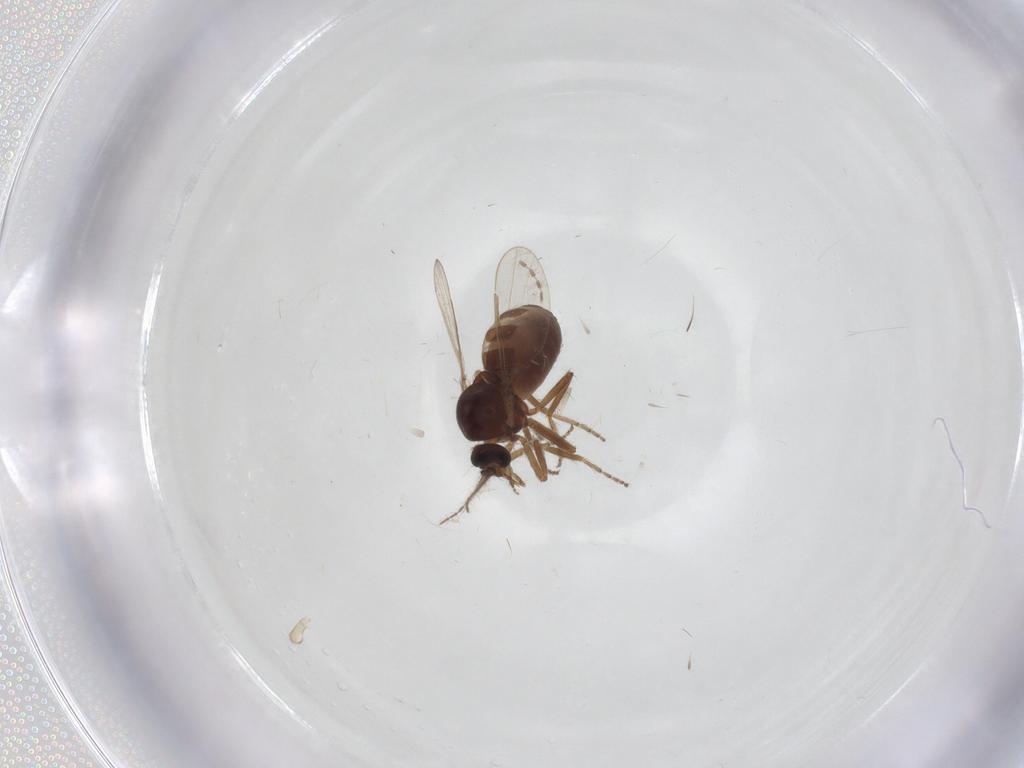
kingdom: Animalia
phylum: Arthropoda
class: Insecta
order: Diptera
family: Ceratopogonidae
